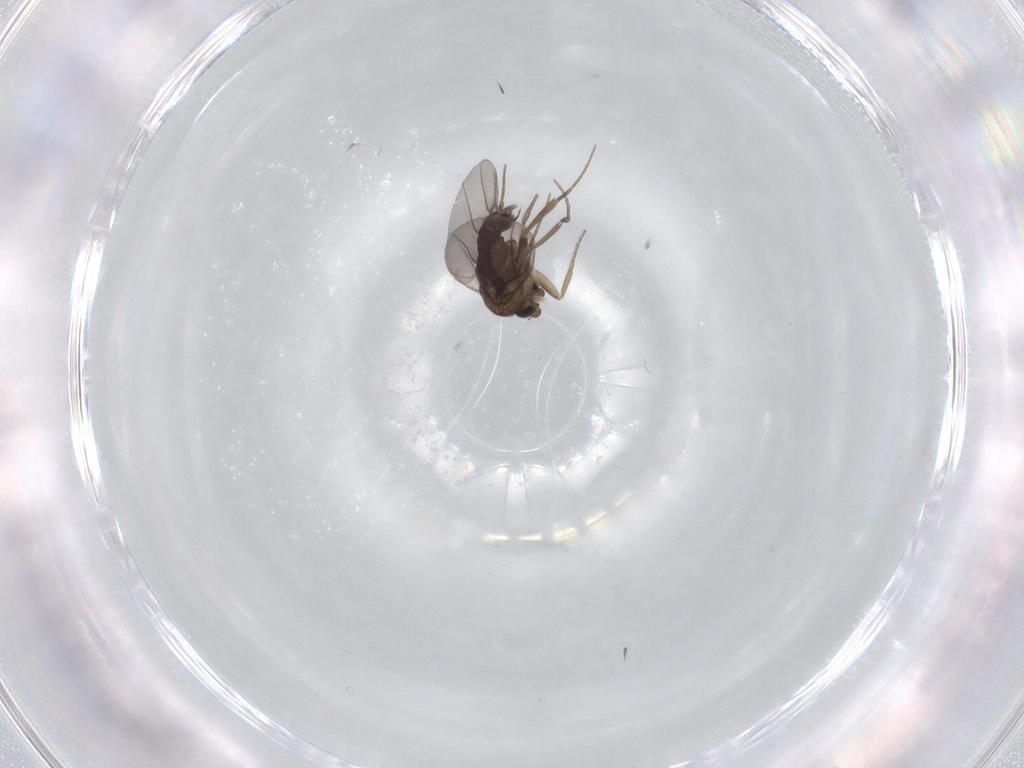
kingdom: Animalia
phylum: Arthropoda
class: Insecta
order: Diptera
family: Phoridae
